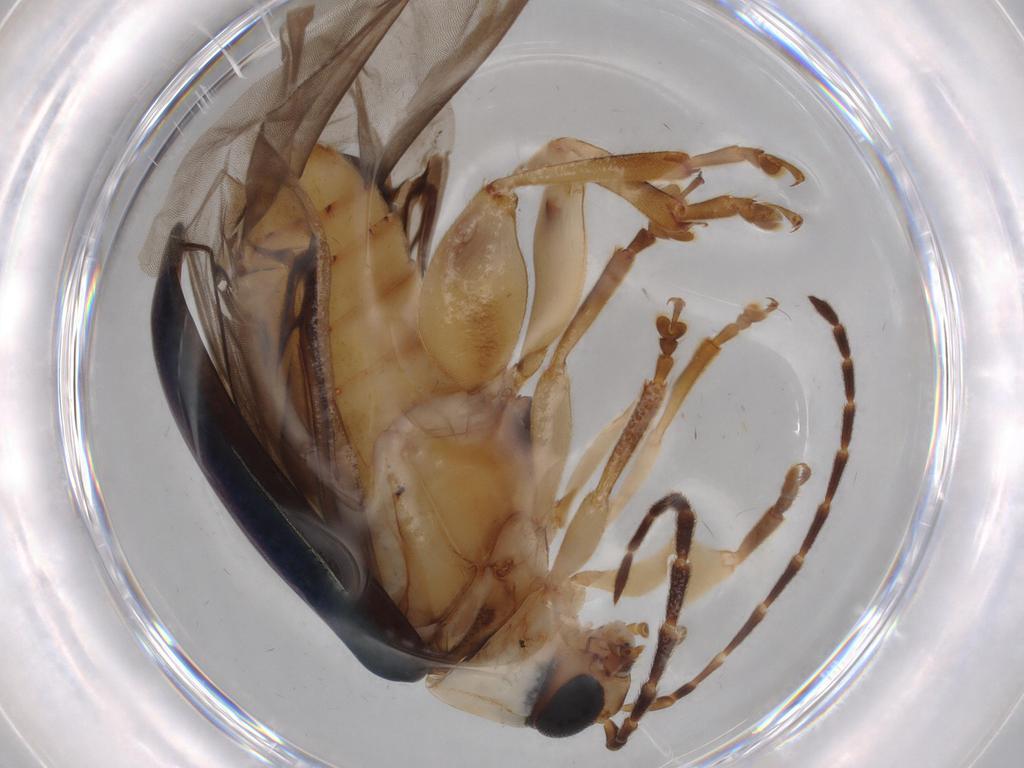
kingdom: Animalia
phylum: Arthropoda
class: Insecta
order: Coleoptera
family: Chrysomelidae
